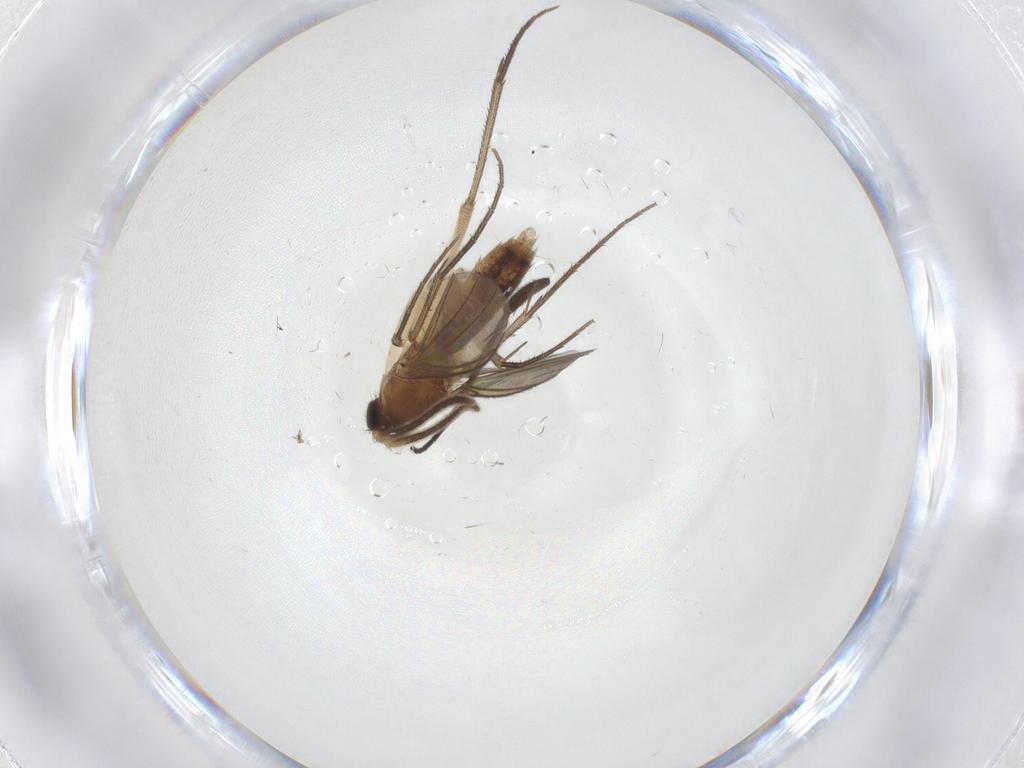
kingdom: Animalia
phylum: Arthropoda
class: Insecta
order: Diptera
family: Mycetophilidae
